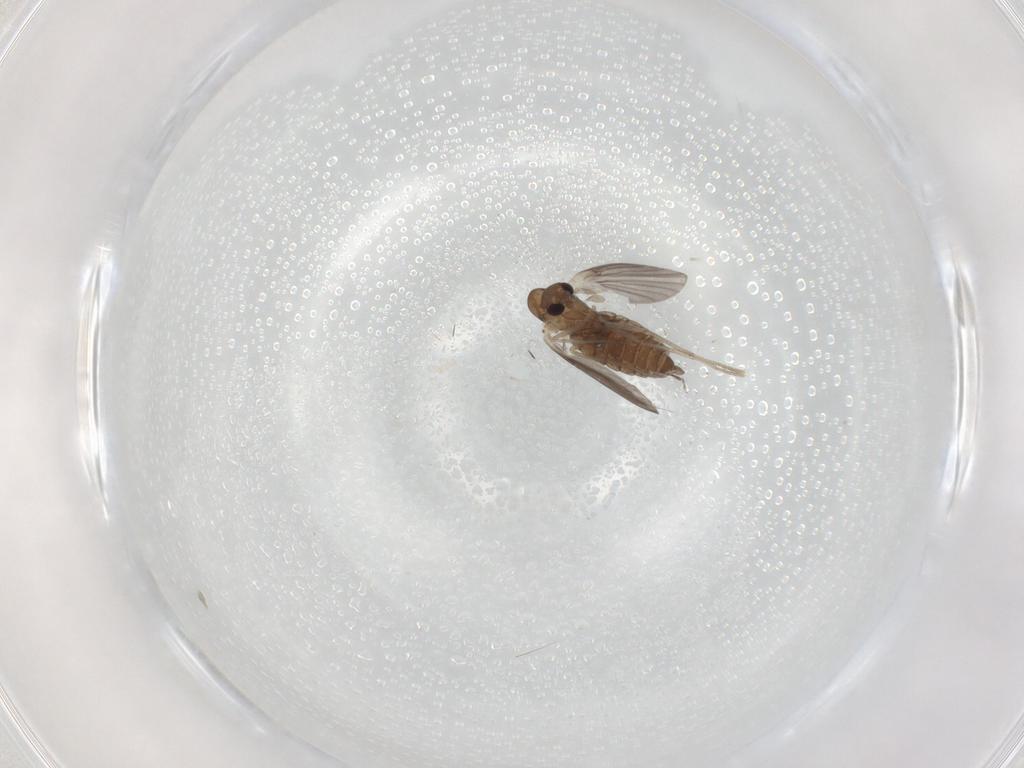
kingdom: Animalia
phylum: Arthropoda
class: Insecta
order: Diptera
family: Cecidomyiidae
